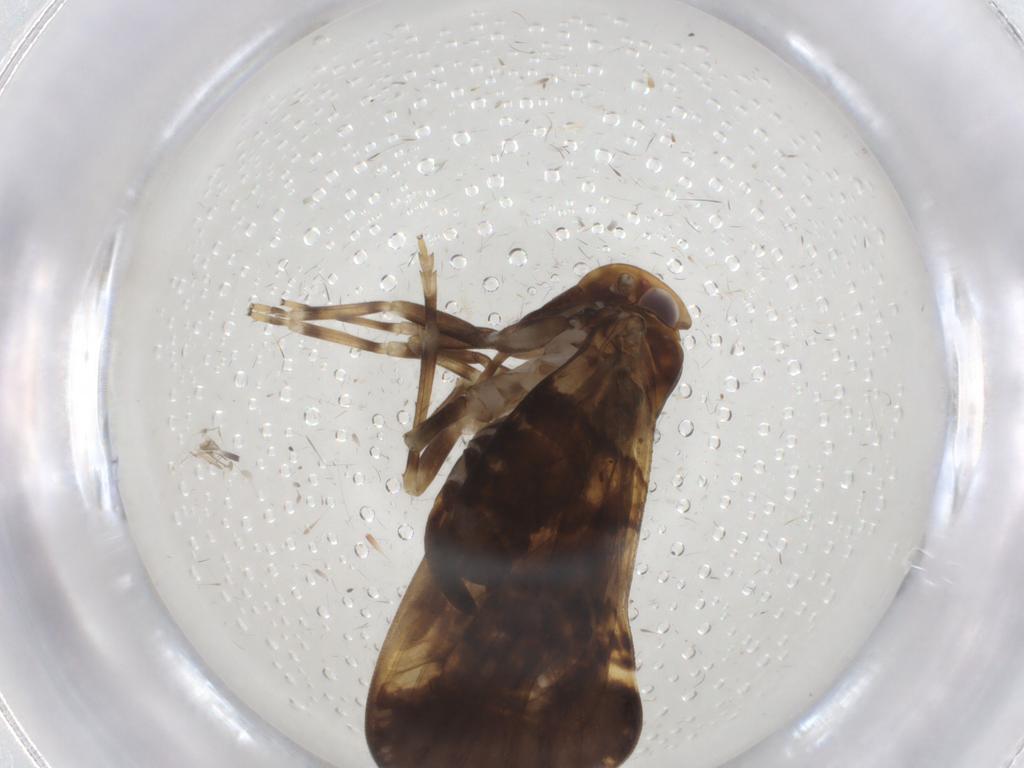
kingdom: Animalia
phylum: Arthropoda
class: Insecta
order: Hemiptera
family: Cixiidae
